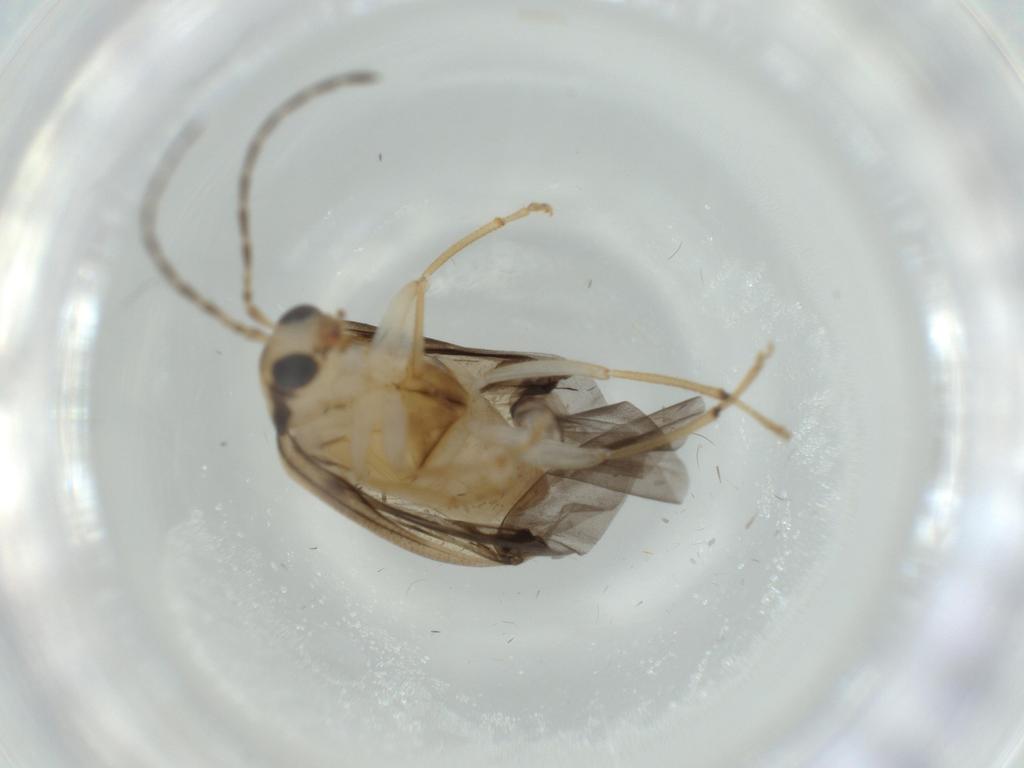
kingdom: Animalia
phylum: Arthropoda
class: Insecta
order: Coleoptera
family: Chrysomelidae
